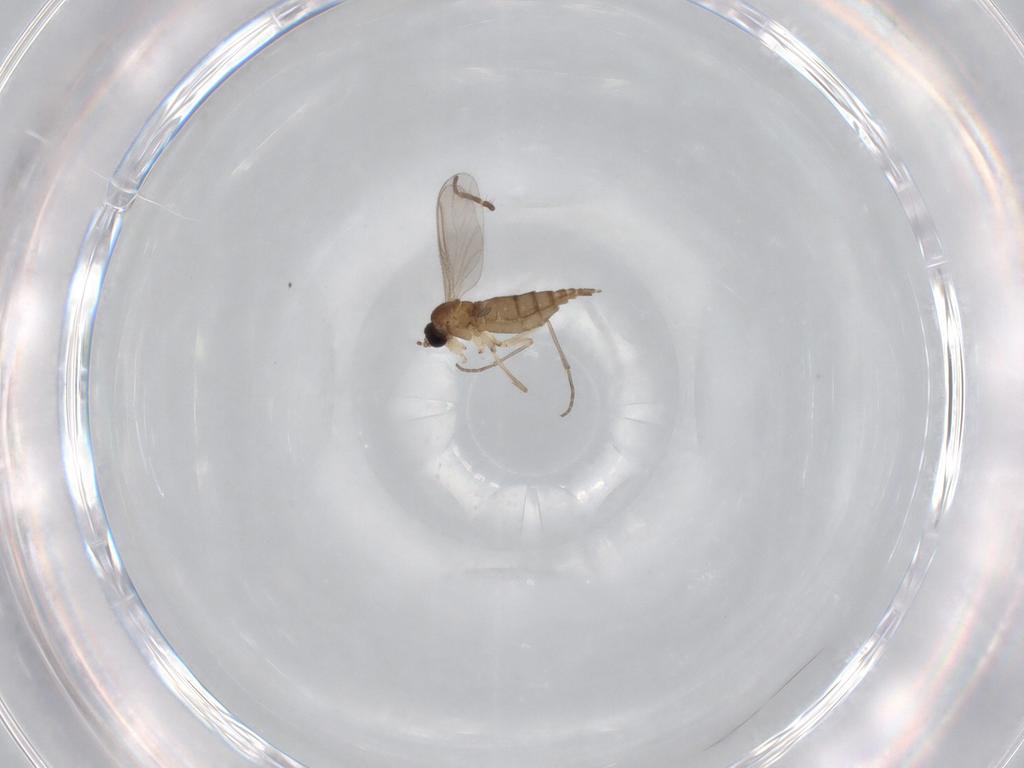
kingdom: Animalia
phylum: Arthropoda
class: Insecta
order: Diptera
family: Sciaridae
